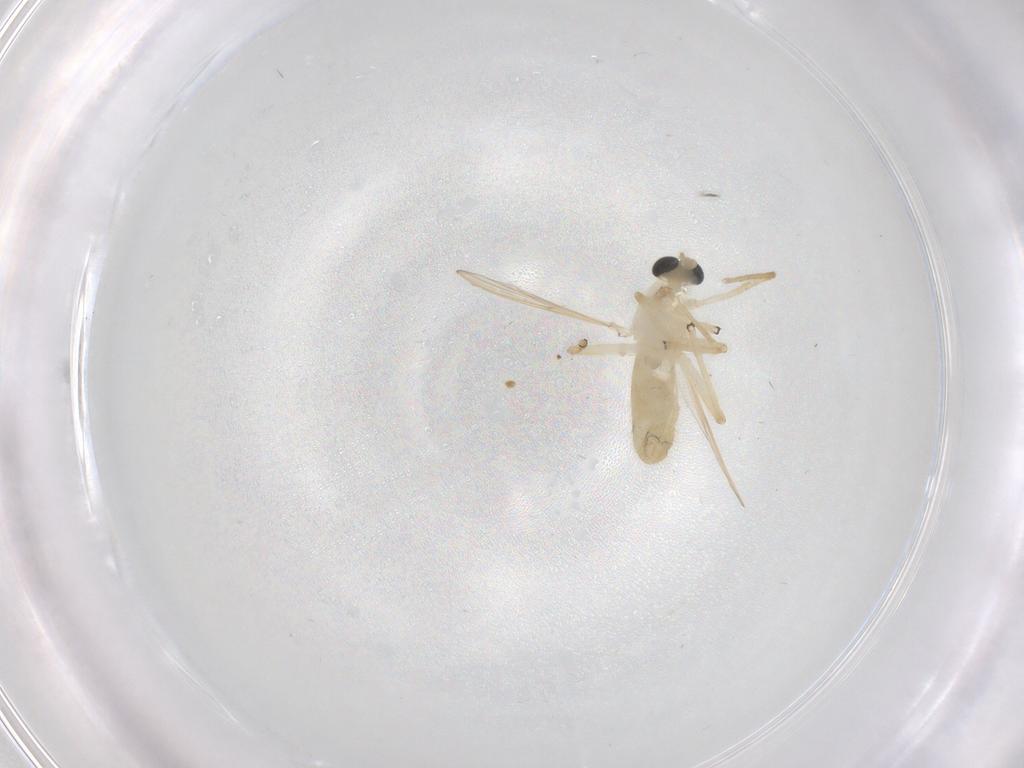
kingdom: Animalia
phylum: Arthropoda
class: Insecta
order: Diptera
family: Chironomidae
